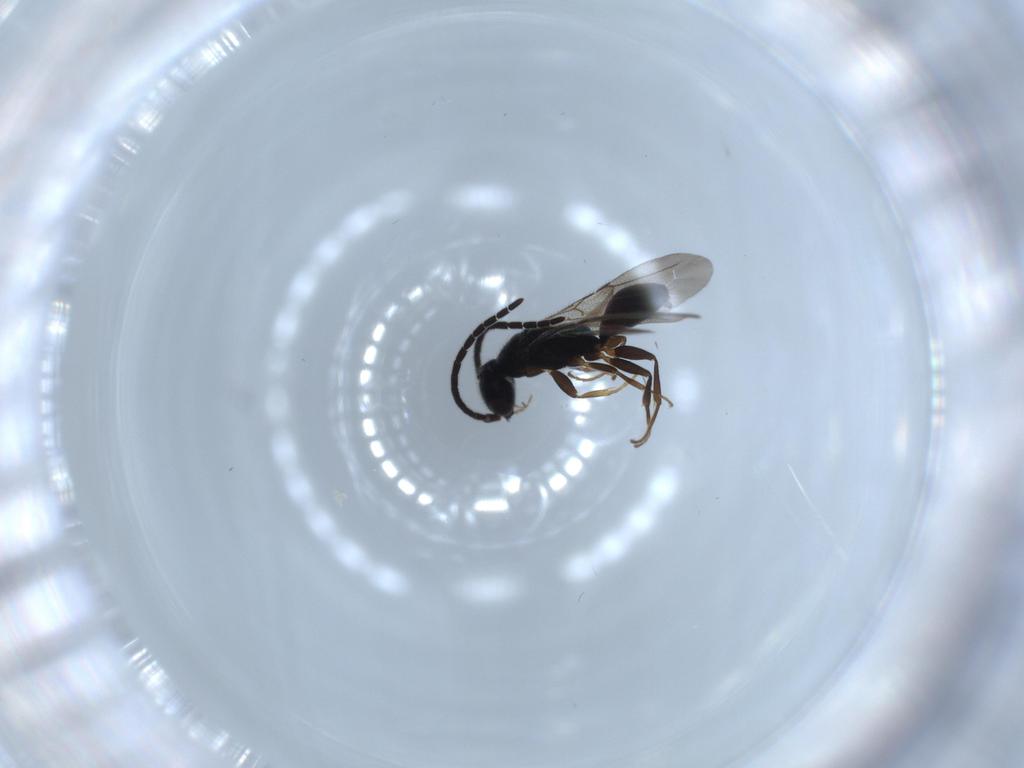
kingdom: Animalia
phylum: Arthropoda
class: Insecta
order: Hymenoptera
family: Bethylidae
